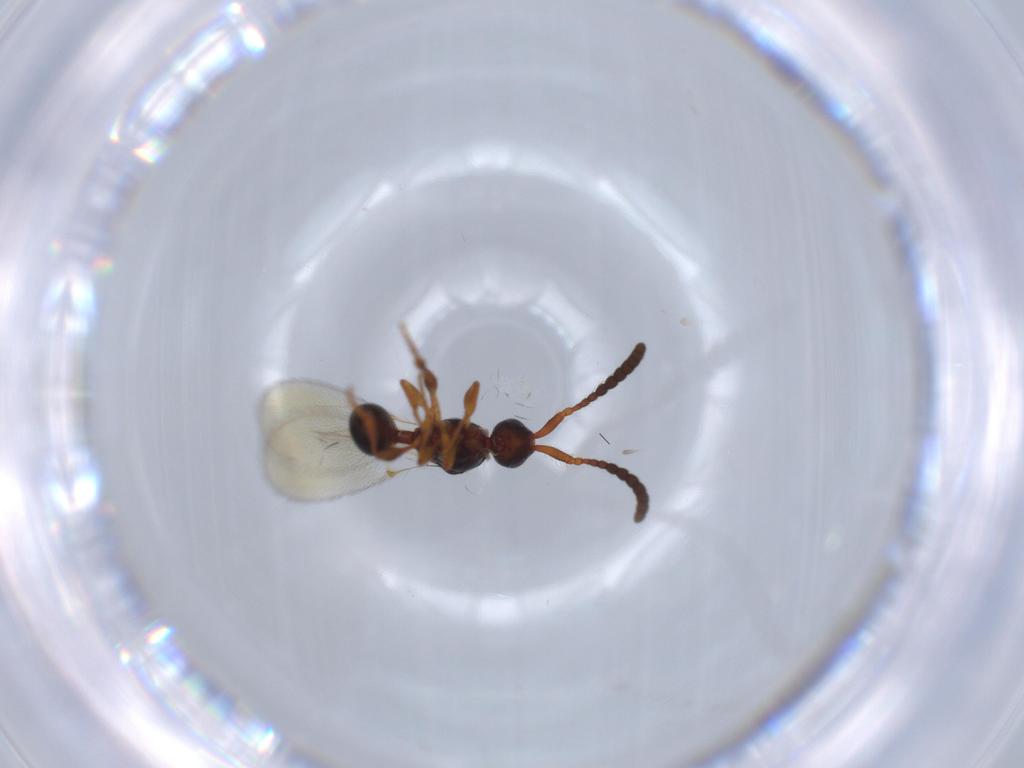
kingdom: Animalia
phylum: Arthropoda
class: Insecta
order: Hymenoptera
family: Diapriidae
